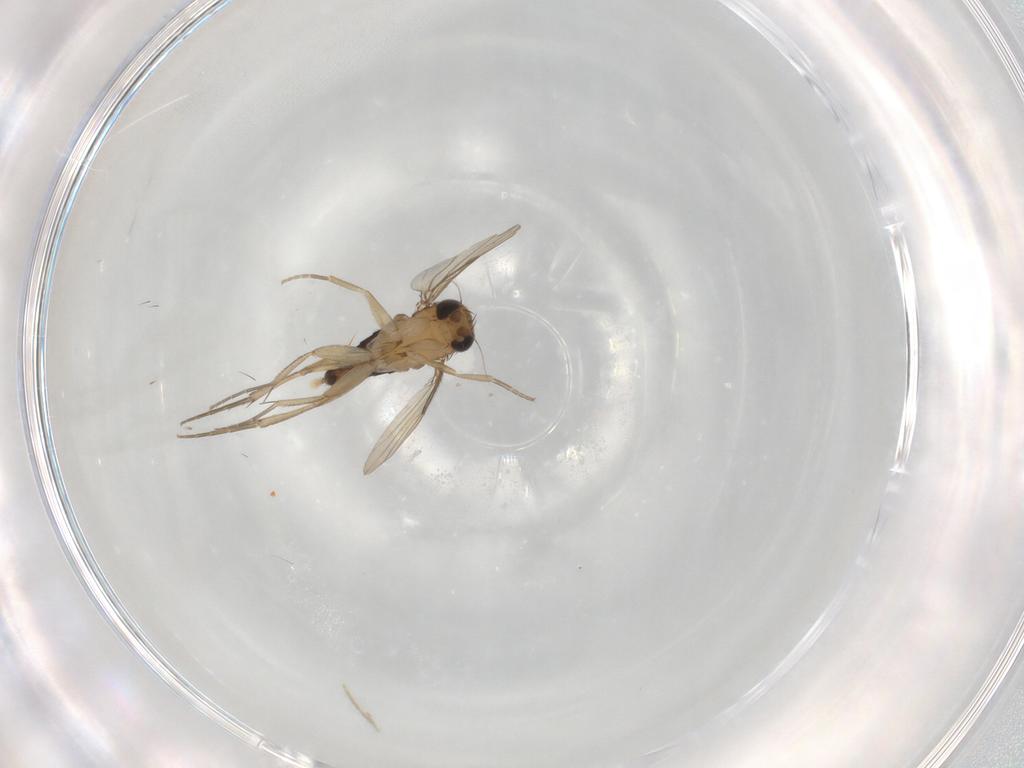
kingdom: Animalia
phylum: Arthropoda
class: Insecta
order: Diptera
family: Phoridae
